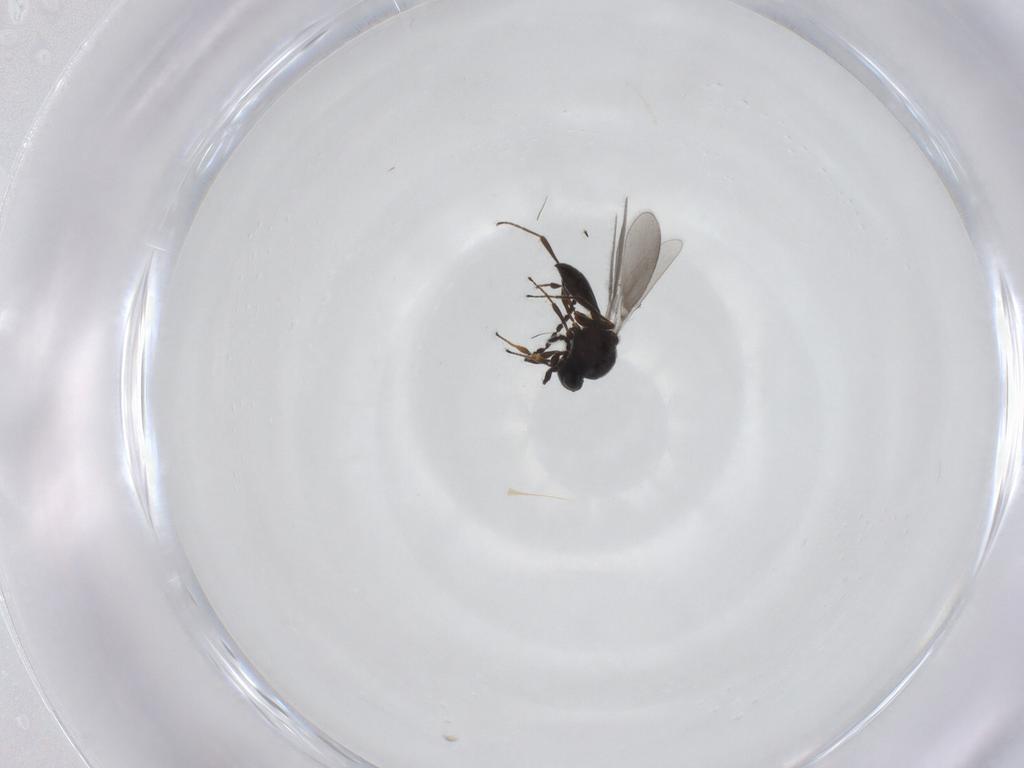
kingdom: Animalia
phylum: Arthropoda
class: Insecta
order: Hymenoptera
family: Platygastridae
